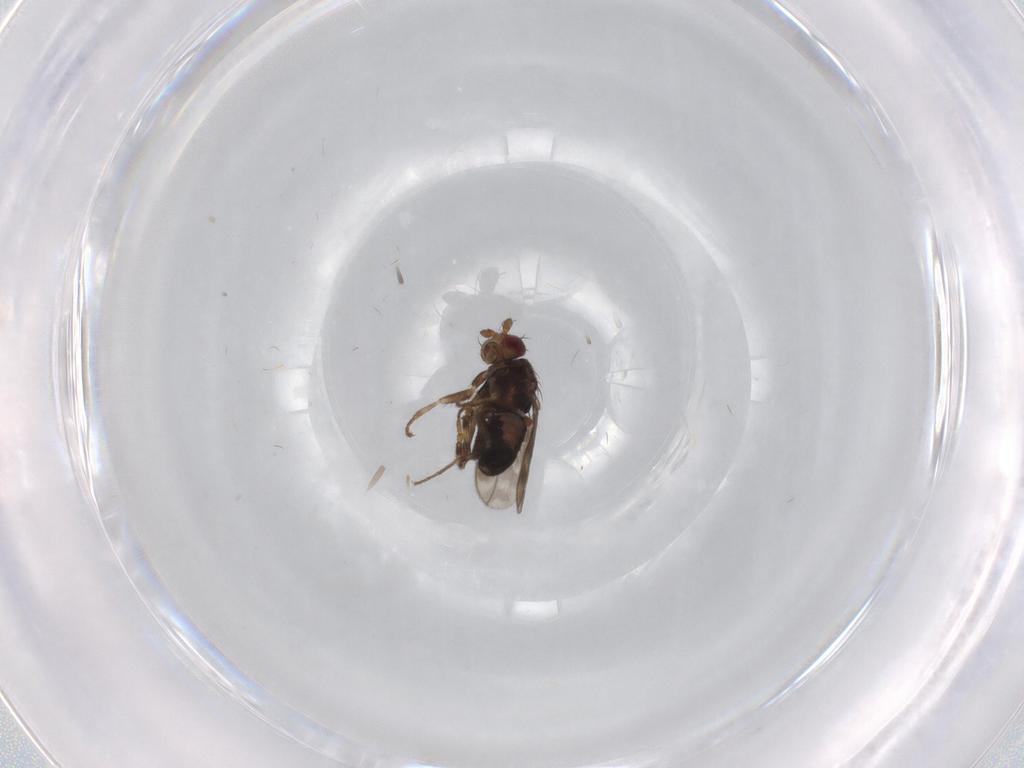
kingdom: Animalia
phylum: Arthropoda
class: Insecta
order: Diptera
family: Sphaeroceridae
